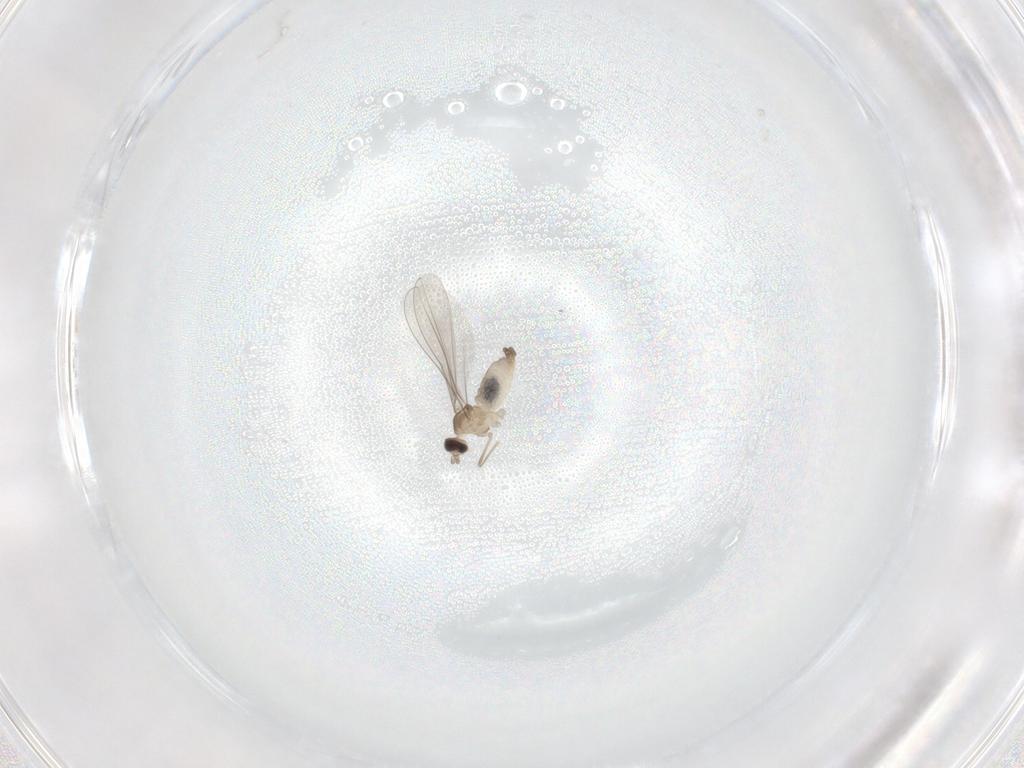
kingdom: Animalia
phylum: Arthropoda
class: Insecta
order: Diptera
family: Cecidomyiidae
